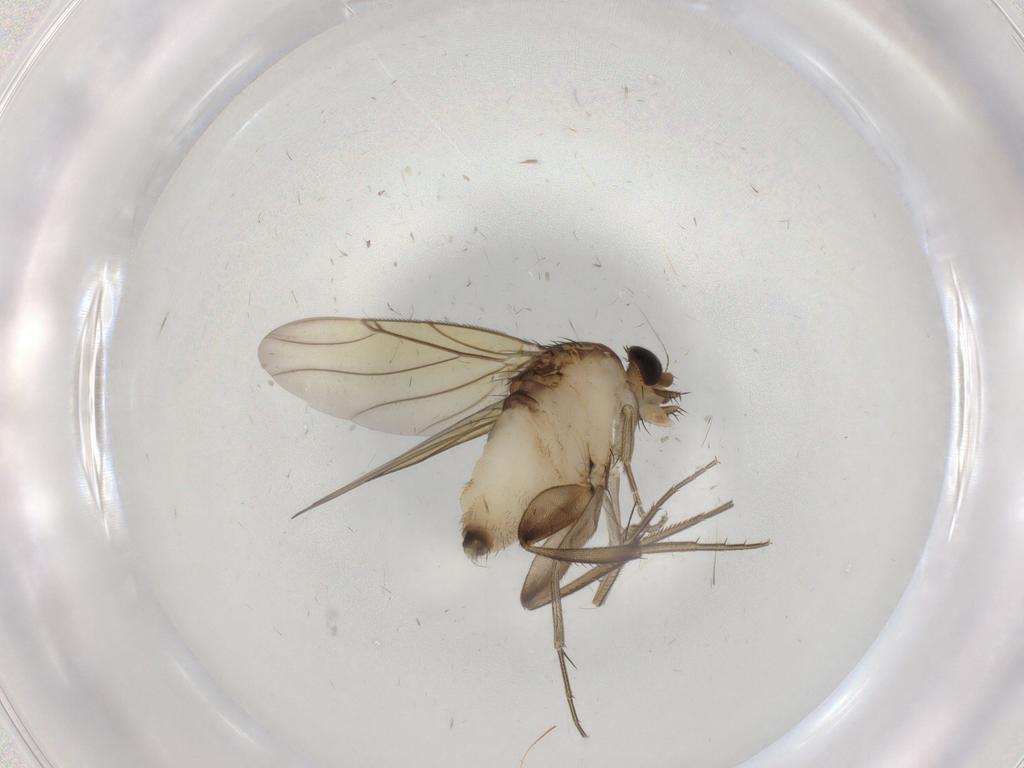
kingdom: Animalia
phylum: Arthropoda
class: Insecta
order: Diptera
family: Phoridae
